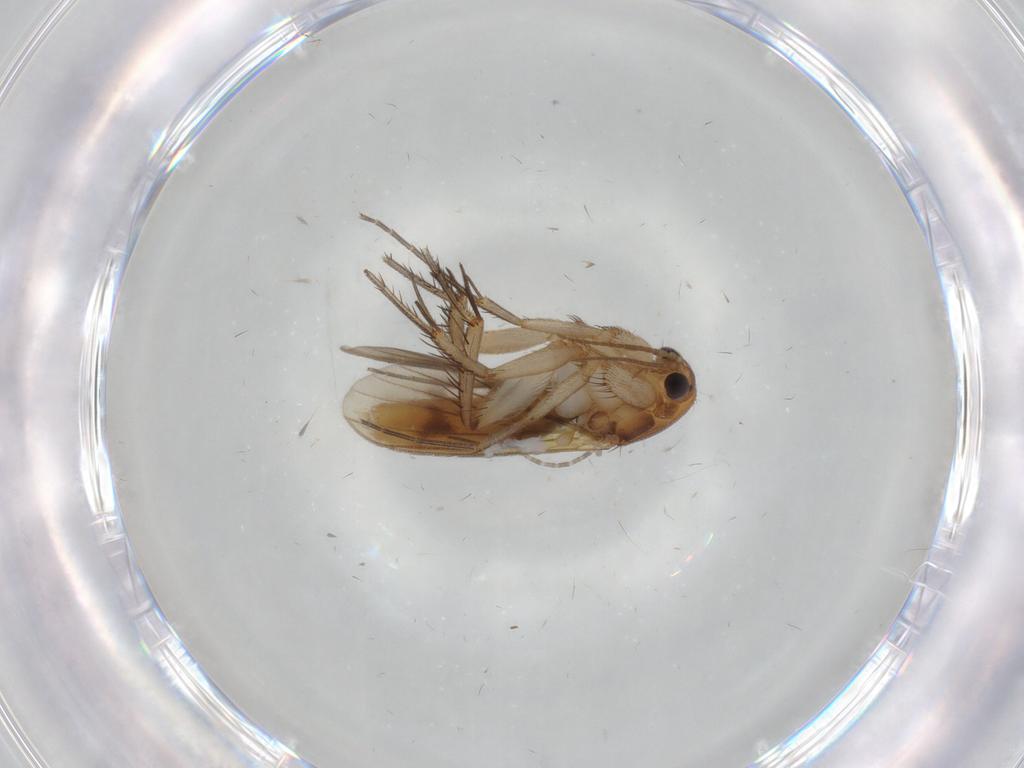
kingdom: Animalia
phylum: Arthropoda
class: Insecta
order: Diptera
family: Mycetophilidae
